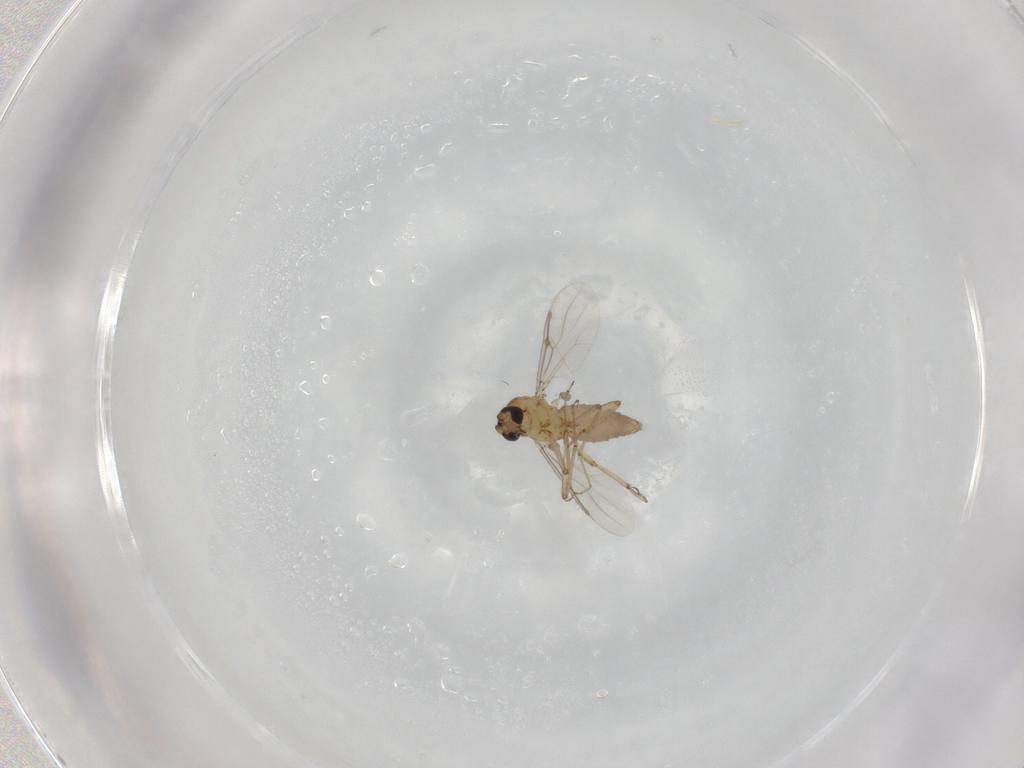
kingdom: Animalia
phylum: Arthropoda
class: Insecta
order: Diptera
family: Ceratopogonidae
